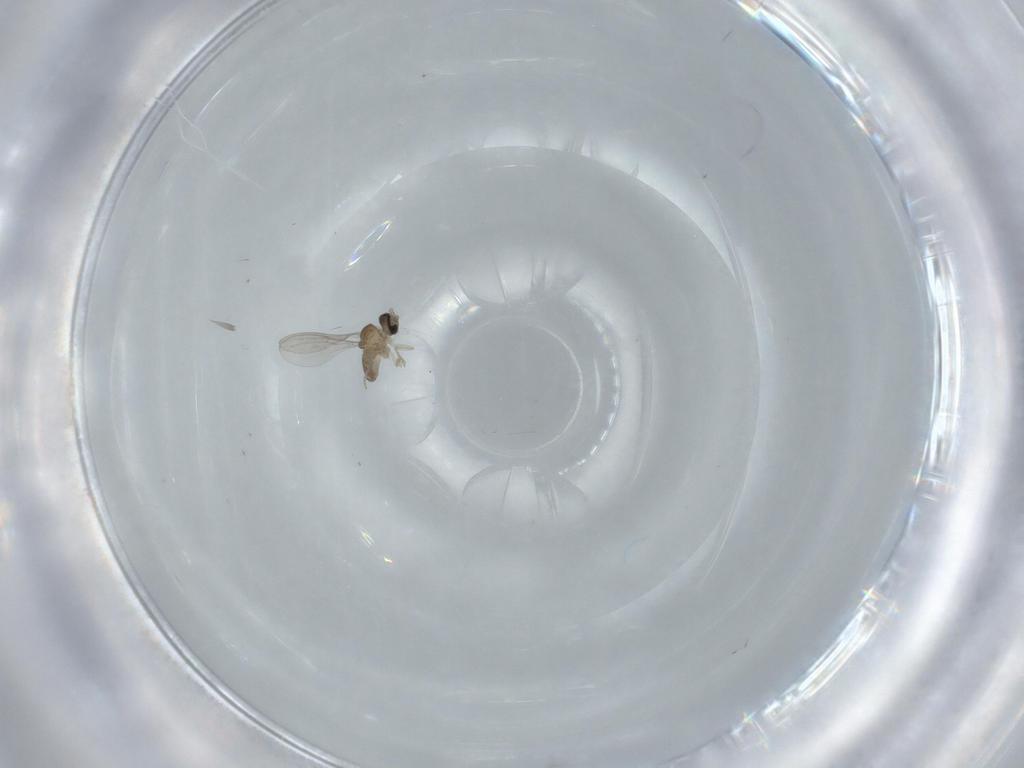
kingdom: Animalia
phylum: Arthropoda
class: Insecta
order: Diptera
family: Cecidomyiidae
